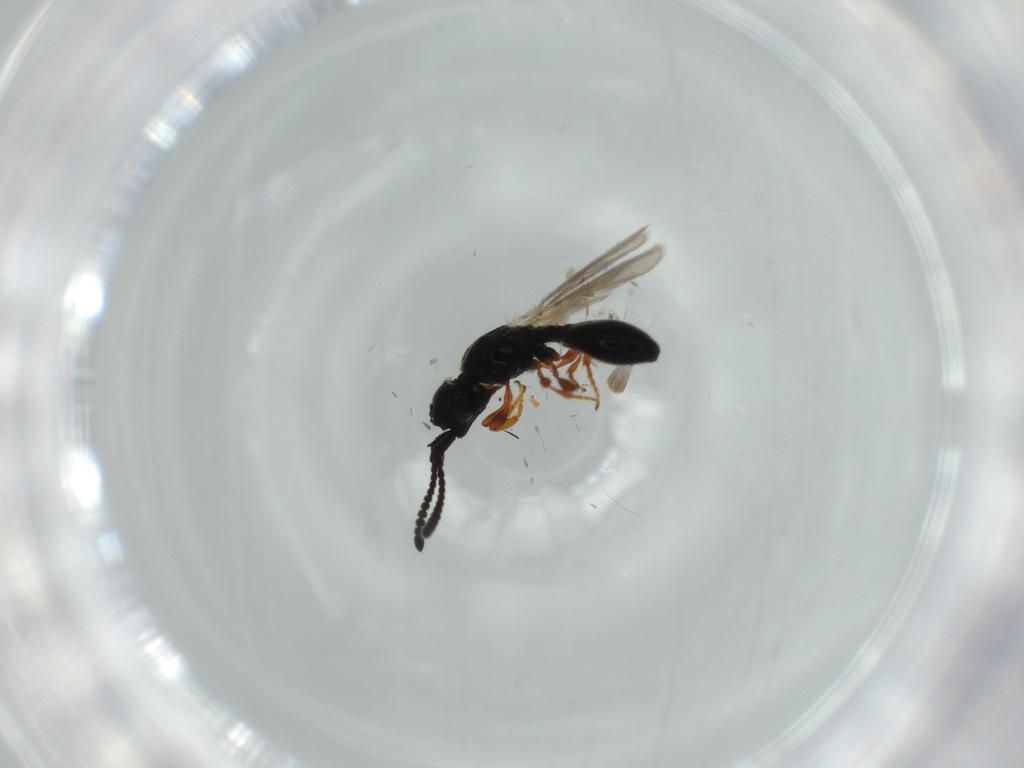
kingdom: Animalia
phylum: Arthropoda
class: Insecta
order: Hymenoptera
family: Diapriidae
